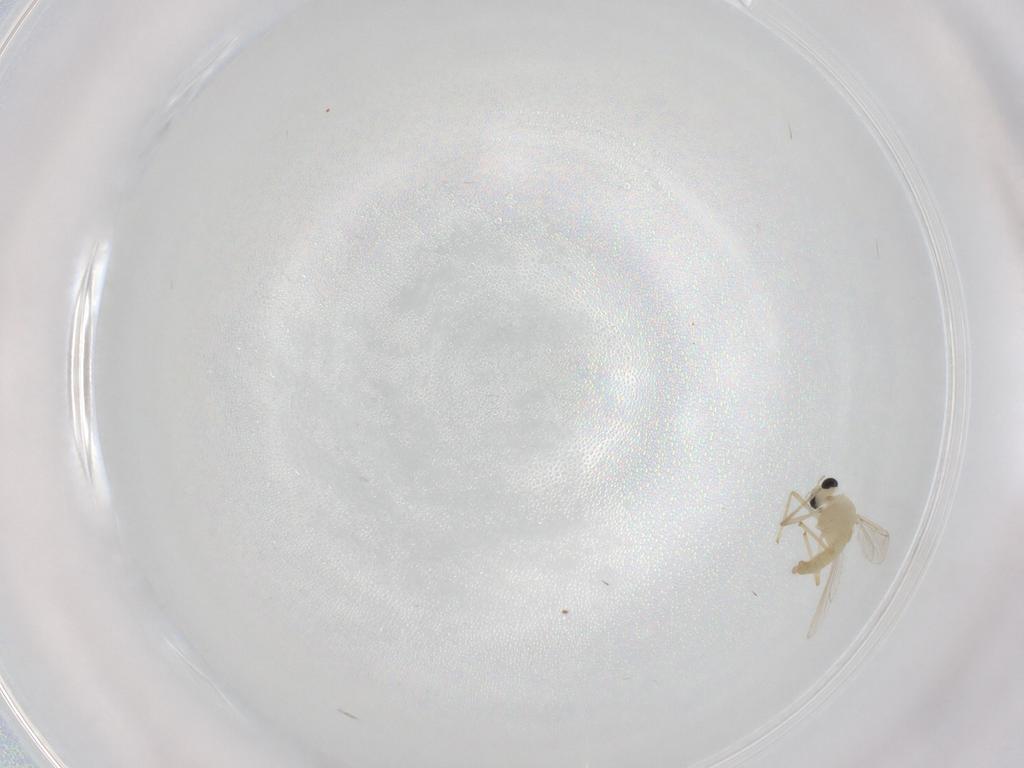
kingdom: Animalia
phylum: Arthropoda
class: Insecta
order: Diptera
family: Chironomidae
